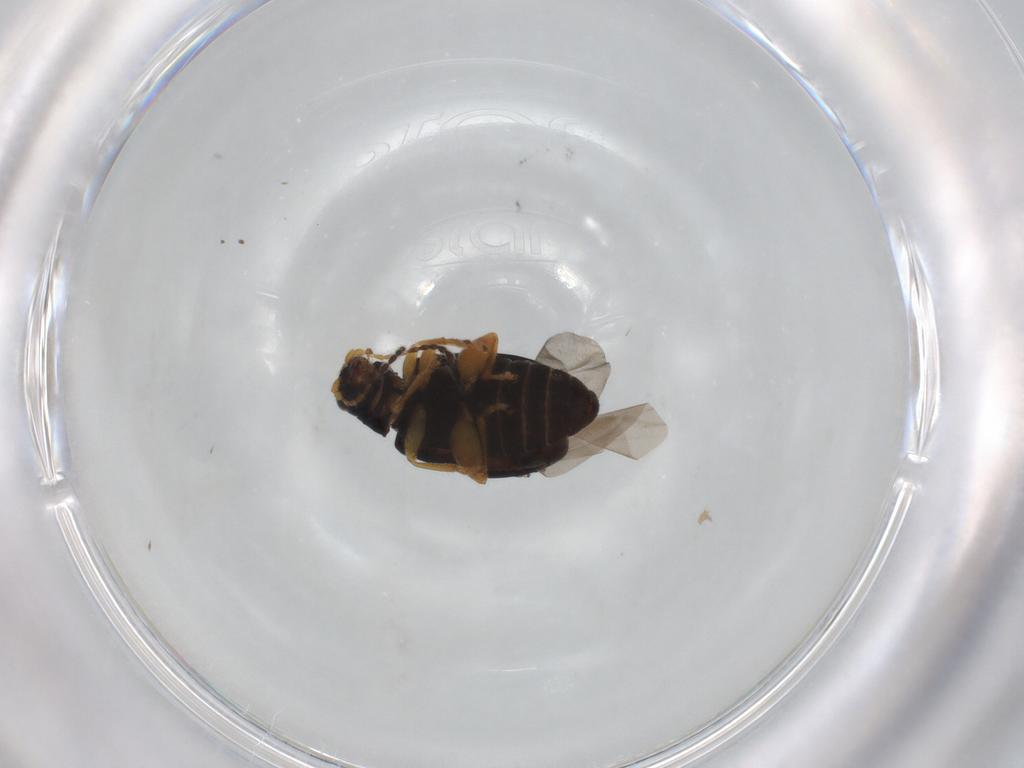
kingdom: Animalia
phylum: Arthropoda
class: Insecta
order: Coleoptera
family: Chrysomelidae
